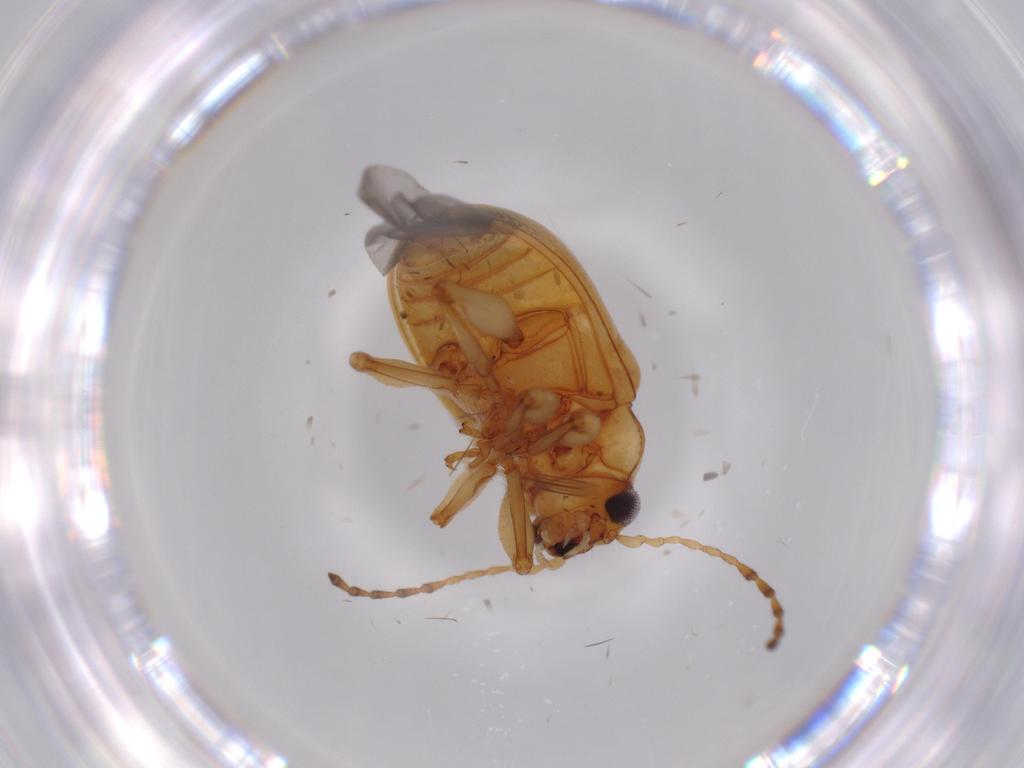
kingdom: Animalia
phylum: Arthropoda
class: Insecta
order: Coleoptera
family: Chrysomelidae
